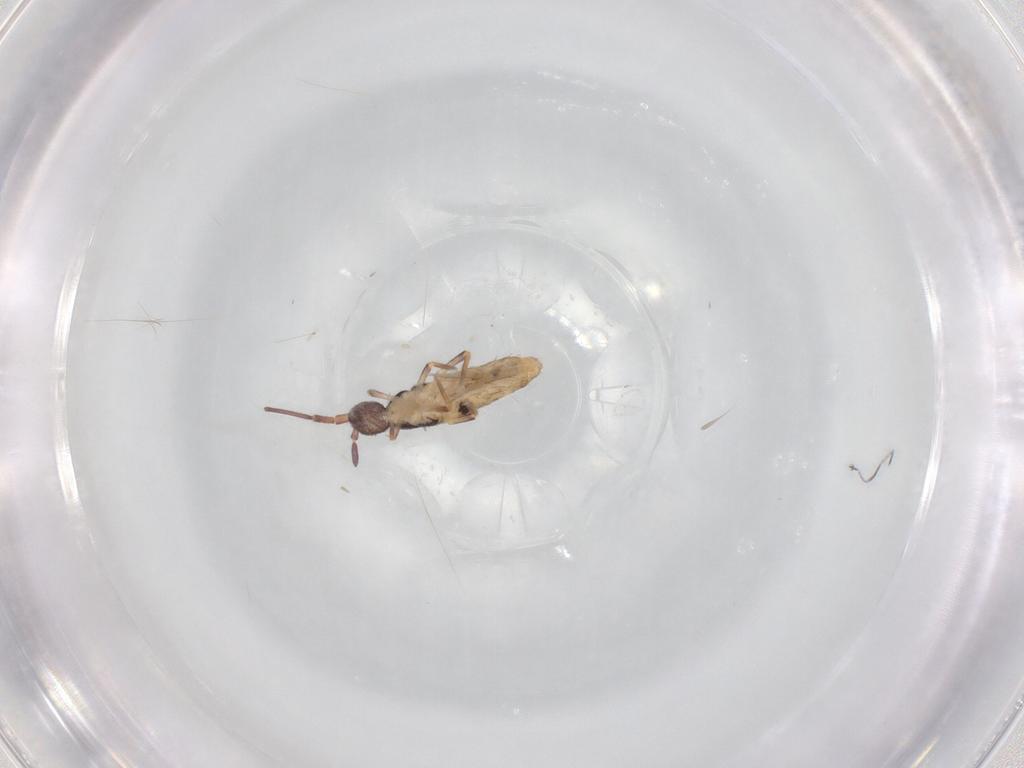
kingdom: Animalia
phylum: Arthropoda
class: Collembola
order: Entomobryomorpha
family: Entomobryidae
